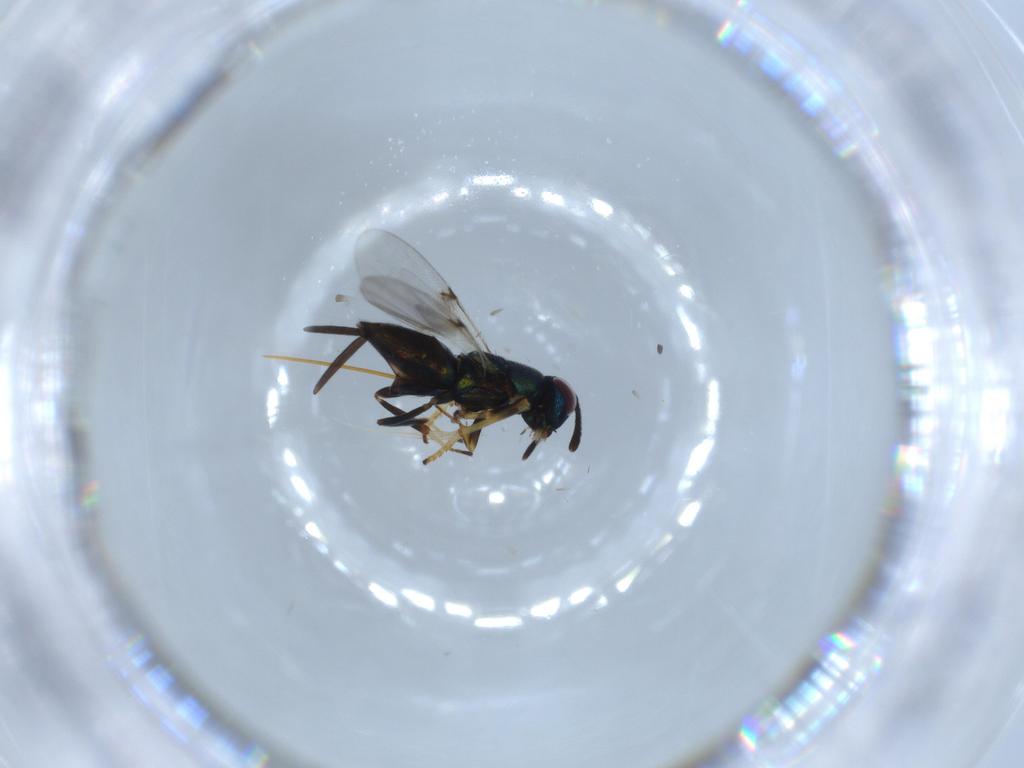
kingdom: Animalia
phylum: Arthropoda
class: Insecta
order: Hymenoptera
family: Encyrtidae
